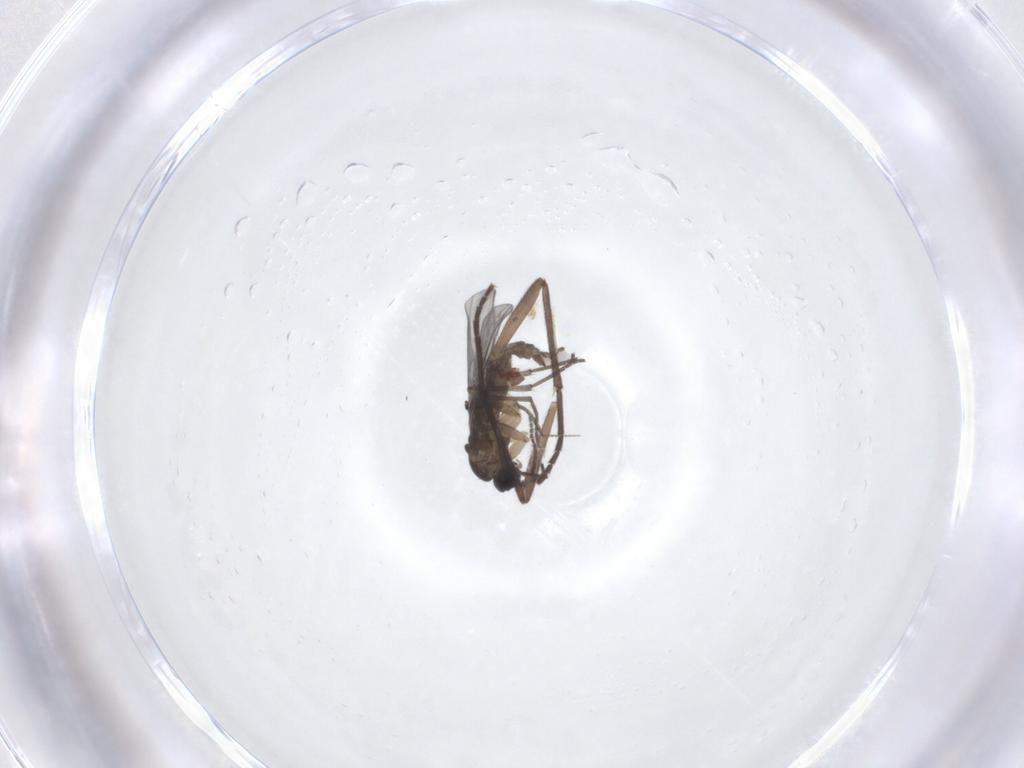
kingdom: Animalia
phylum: Arthropoda
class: Insecta
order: Diptera
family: Sciaridae
